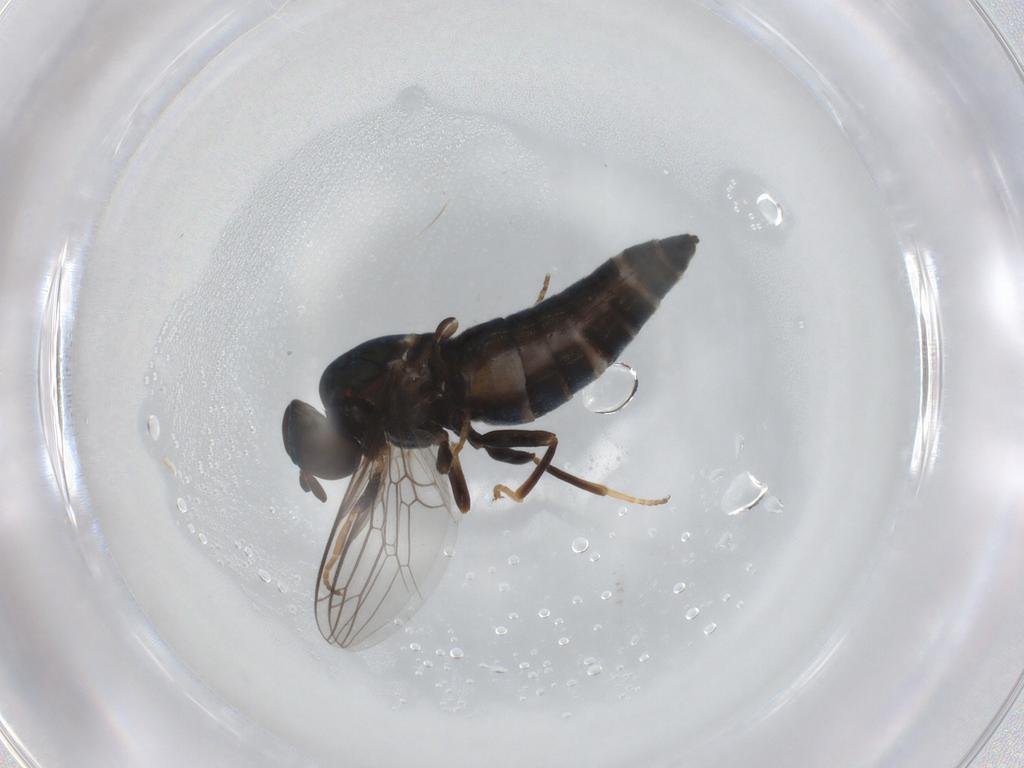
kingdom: Animalia
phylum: Arthropoda
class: Insecta
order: Diptera
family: Scenopinidae
